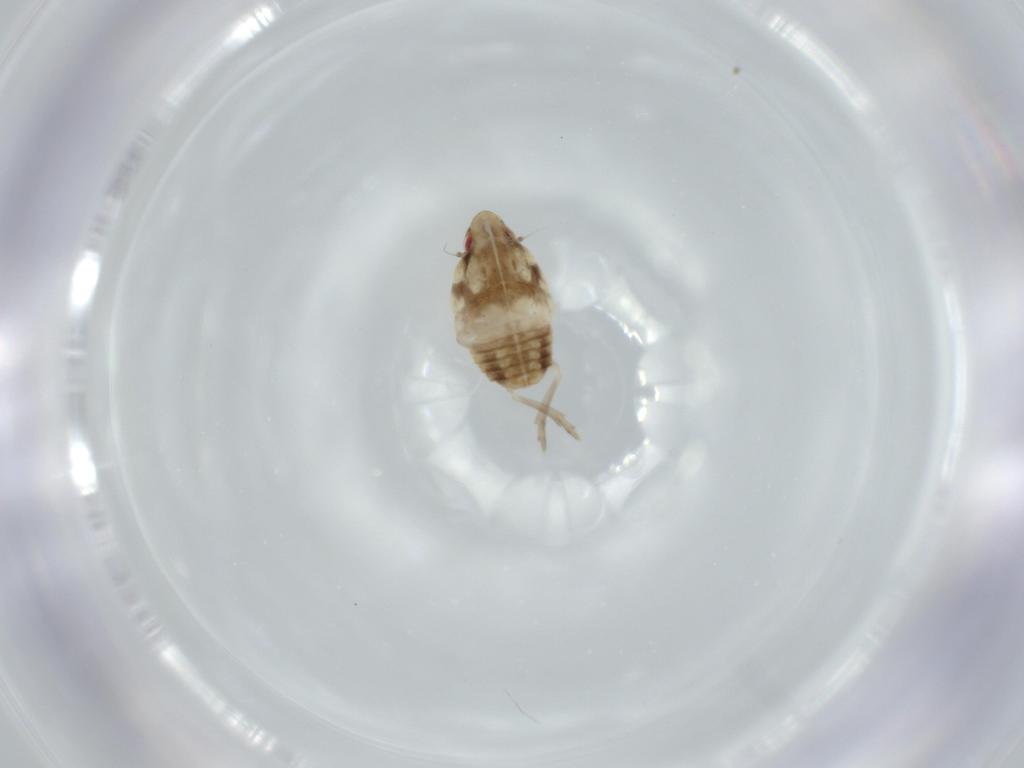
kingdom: Animalia
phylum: Arthropoda
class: Insecta
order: Hemiptera
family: Flatidae
